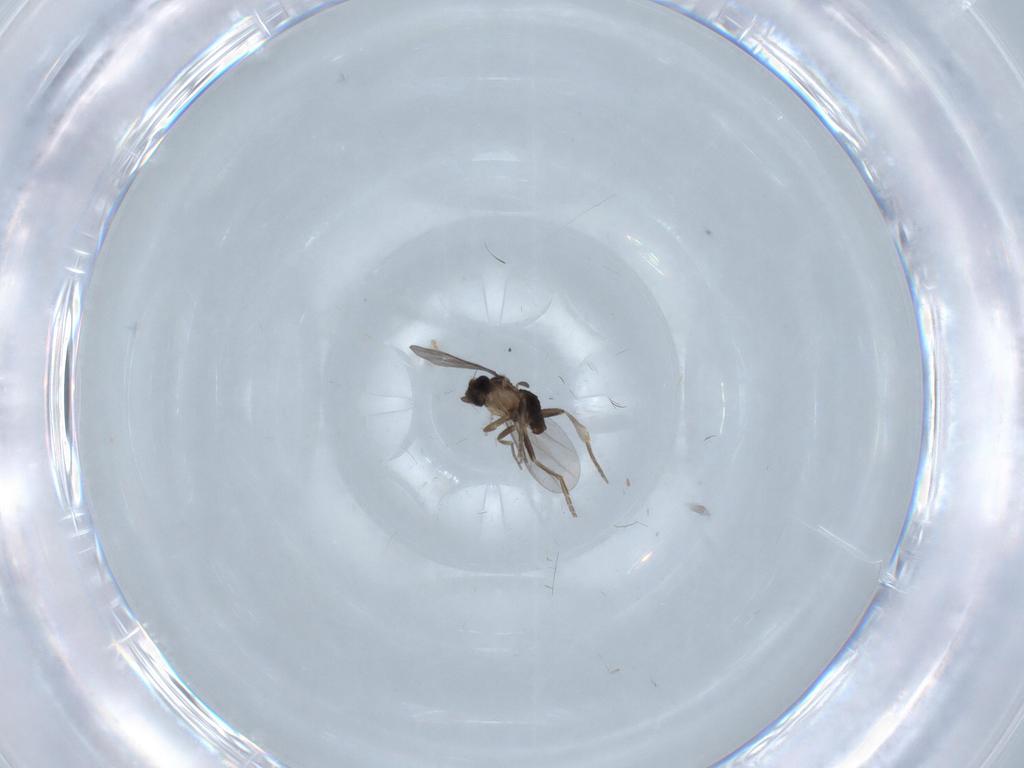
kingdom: Animalia
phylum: Arthropoda
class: Insecta
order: Diptera
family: Chironomidae
